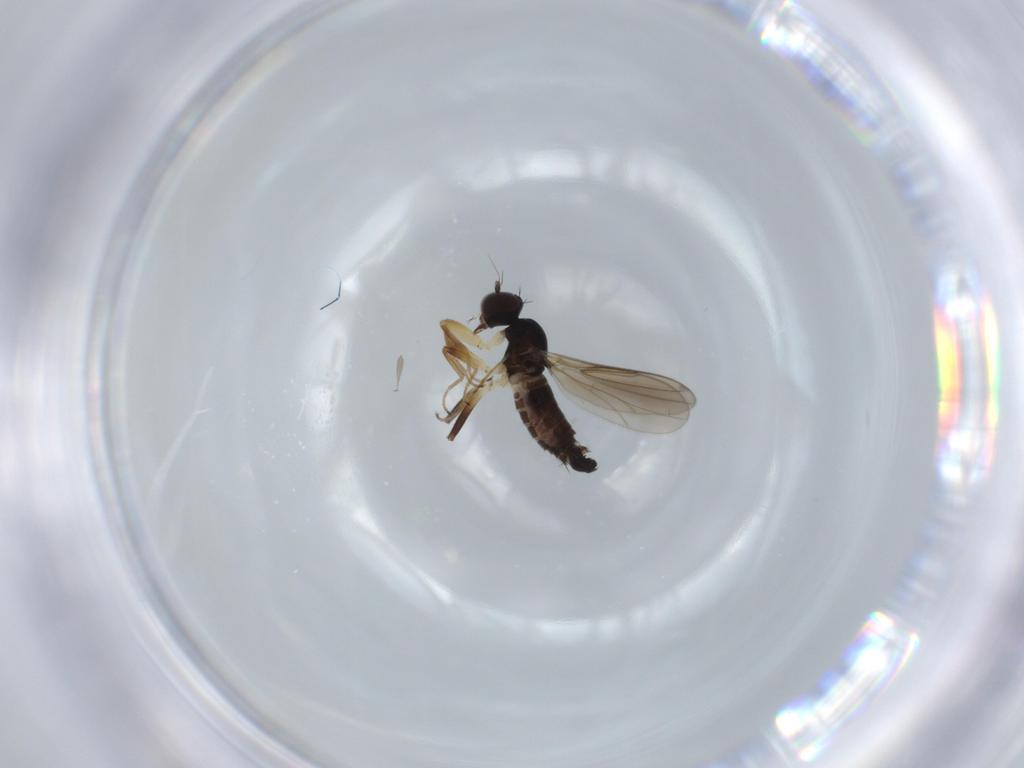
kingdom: Animalia
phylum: Arthropoda
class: Insecta
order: Diptera
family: Hybotidae
